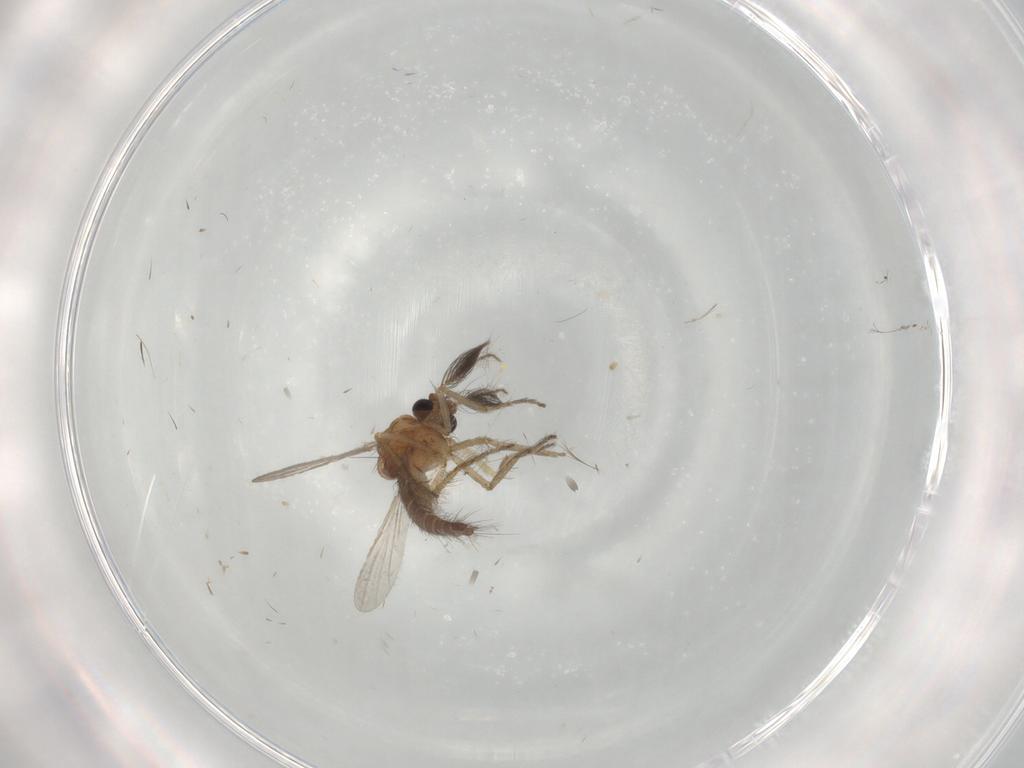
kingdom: Animalia
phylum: Arthropoda
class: Insecta
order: Diptera
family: Ceratopogonidae
